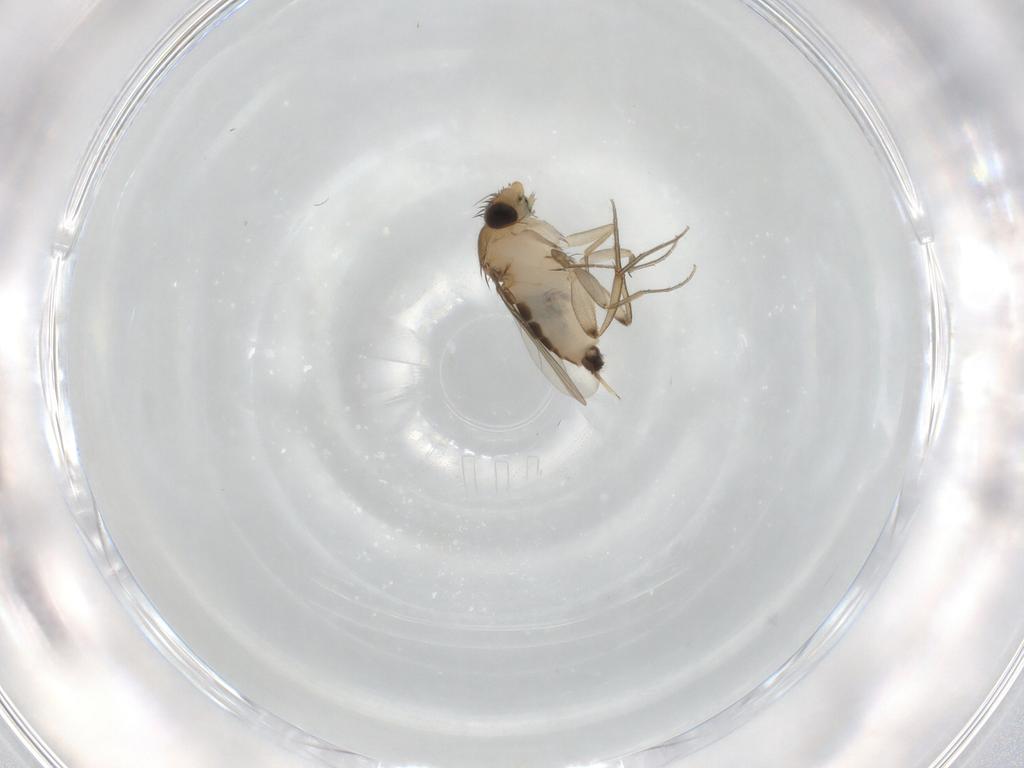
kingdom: Animalia
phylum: Arthropoda
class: Insecta
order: Diptera
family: Phoridae
